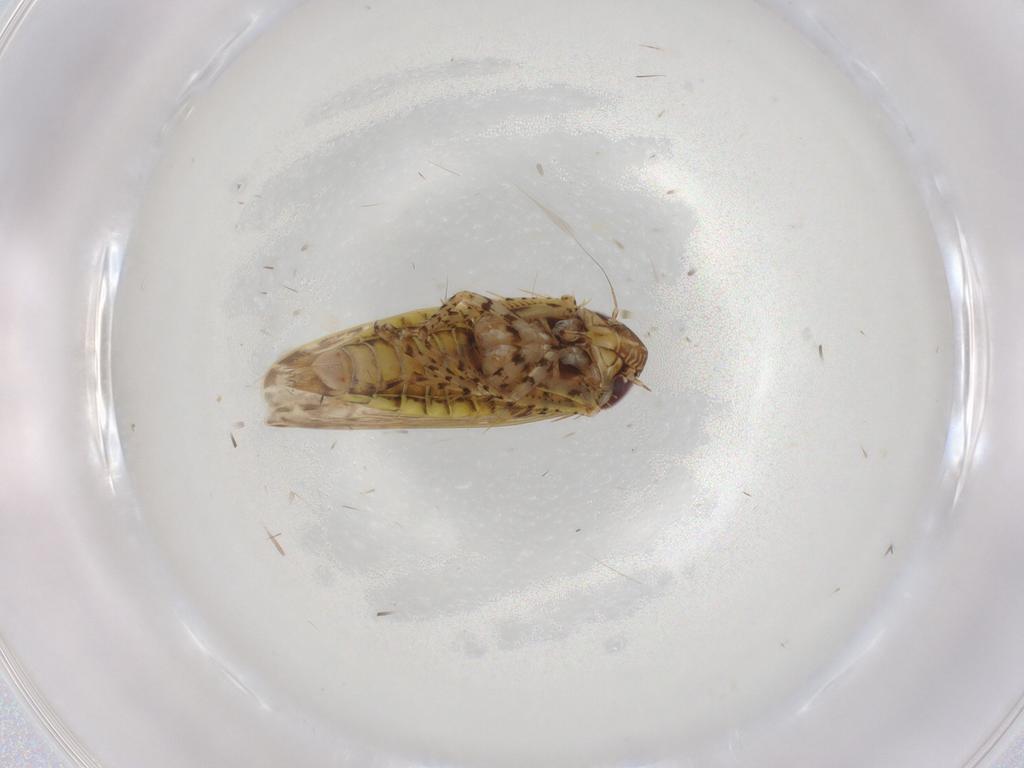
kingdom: Animalia
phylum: Arthropoda
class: Insecta
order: Hemiptera
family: Cicadellidae
